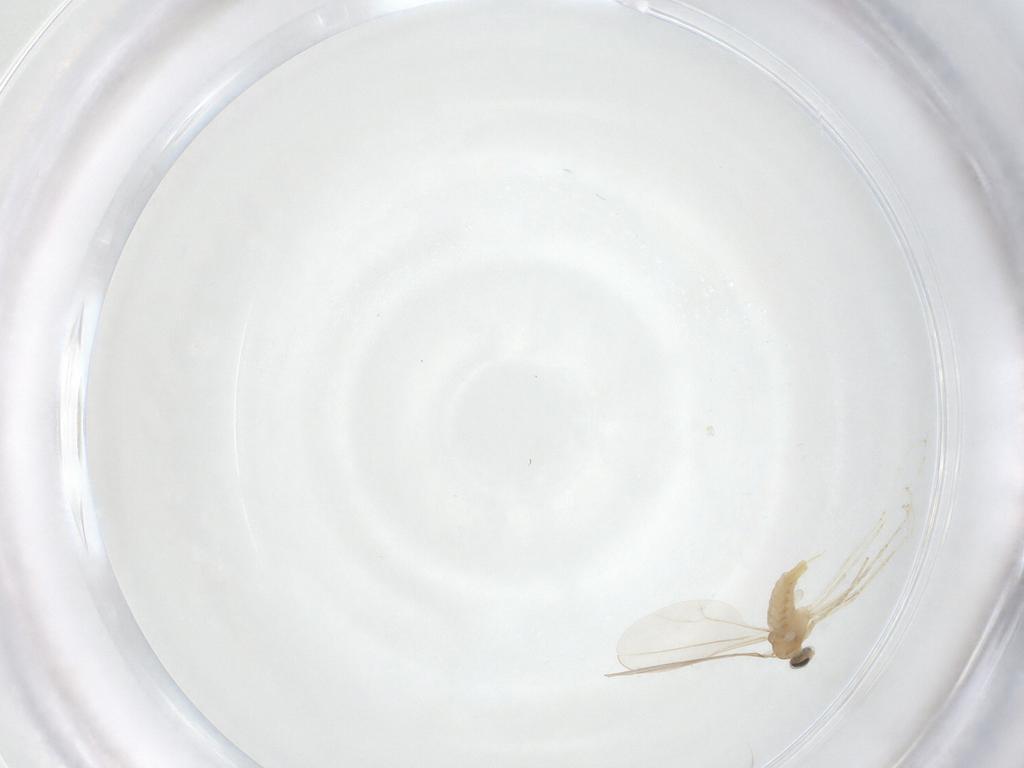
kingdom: Animalia
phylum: Arthropoda
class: Insecta
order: Diptera
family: Cecidomyiidae
